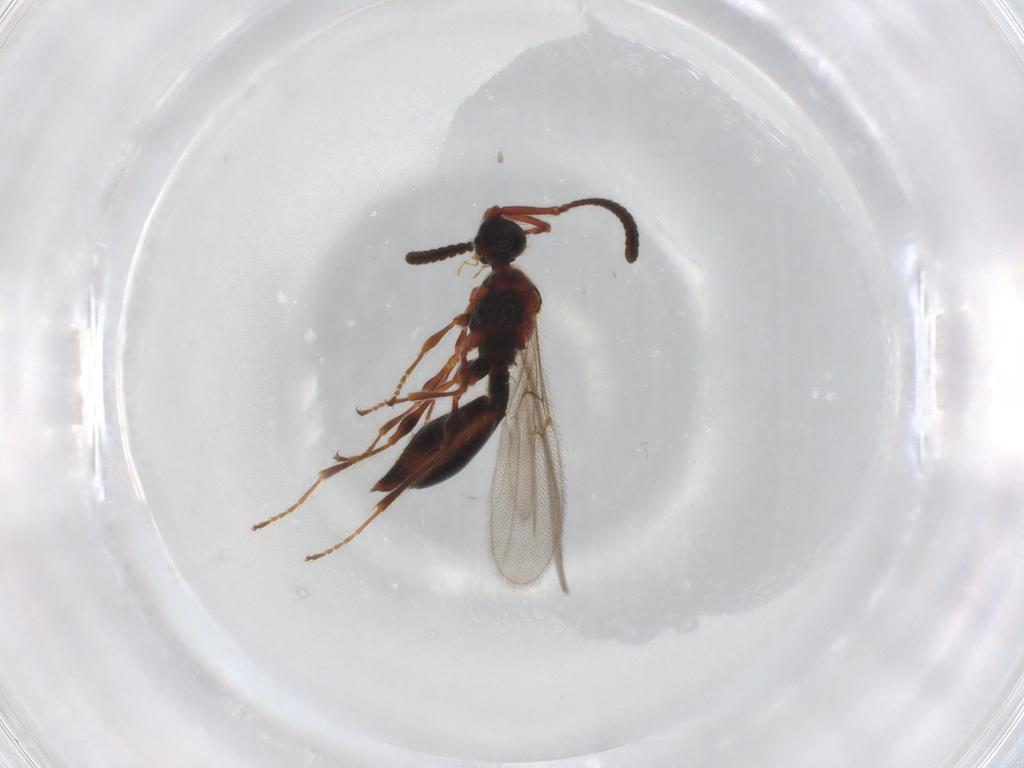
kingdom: Animalia
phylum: Arthropoda
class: Insecta
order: Hymenoptera
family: Diapriidae
